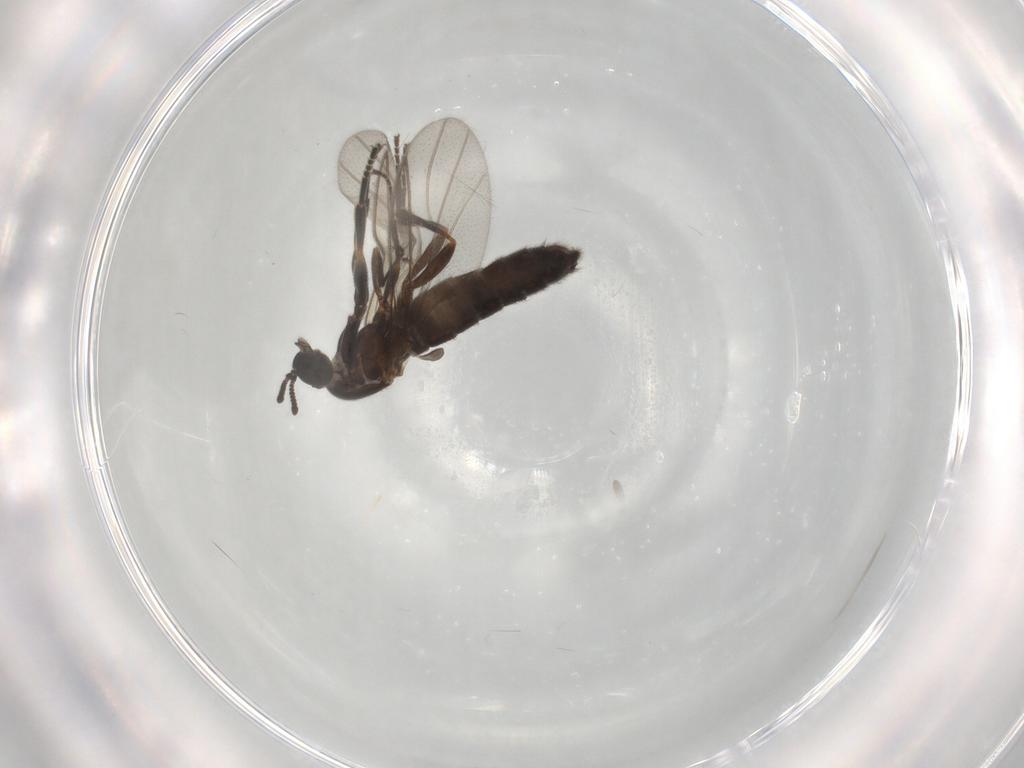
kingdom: Animalia
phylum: Arthropoda
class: Insecta
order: Diptera
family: Scatopsidae
